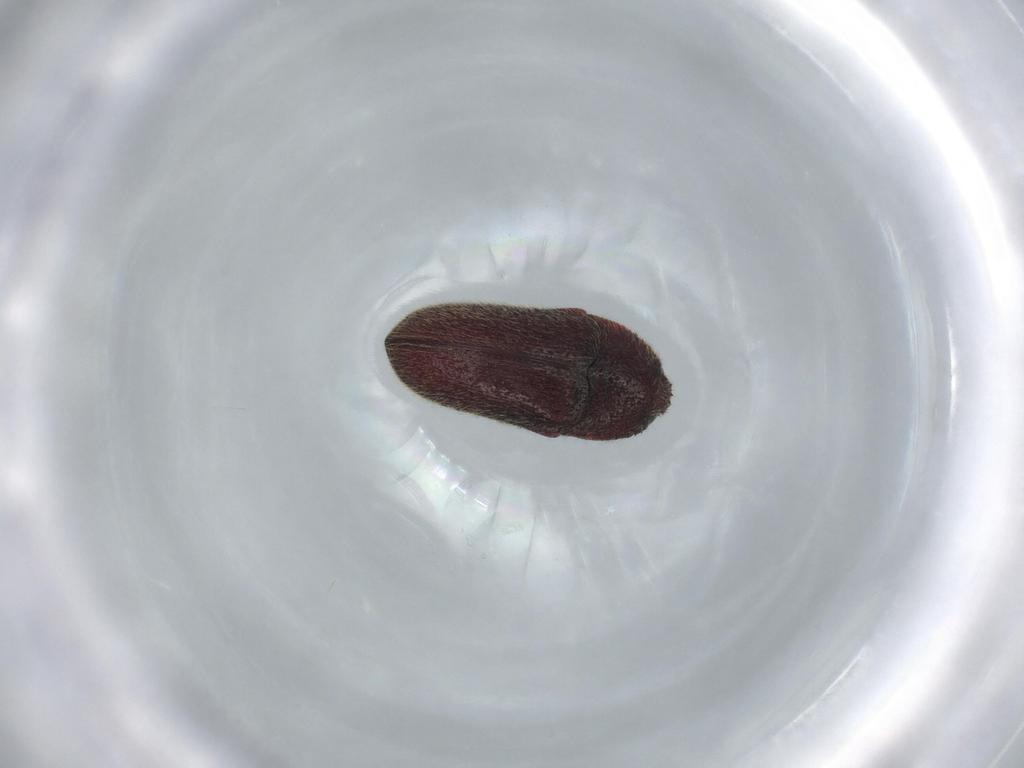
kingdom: Animalia
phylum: Arthropoda
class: Insecta
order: Coleoptera
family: Throscidae
